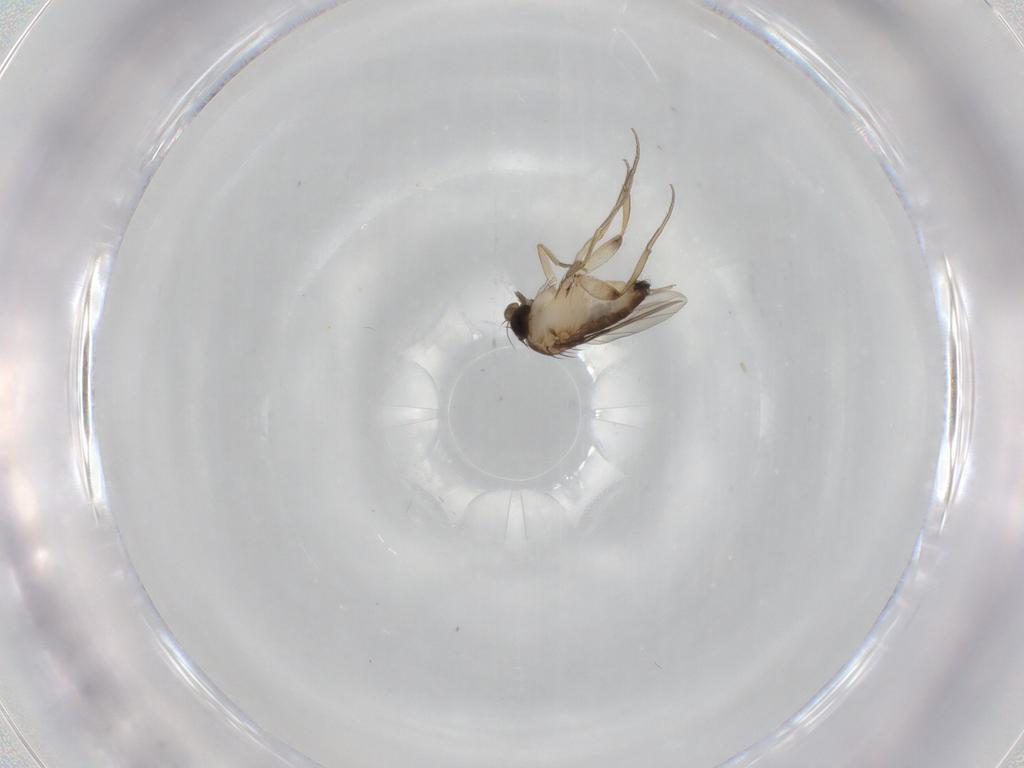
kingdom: Animalia
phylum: Arthropoda
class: Insecta
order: Diptera
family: Phoridae
